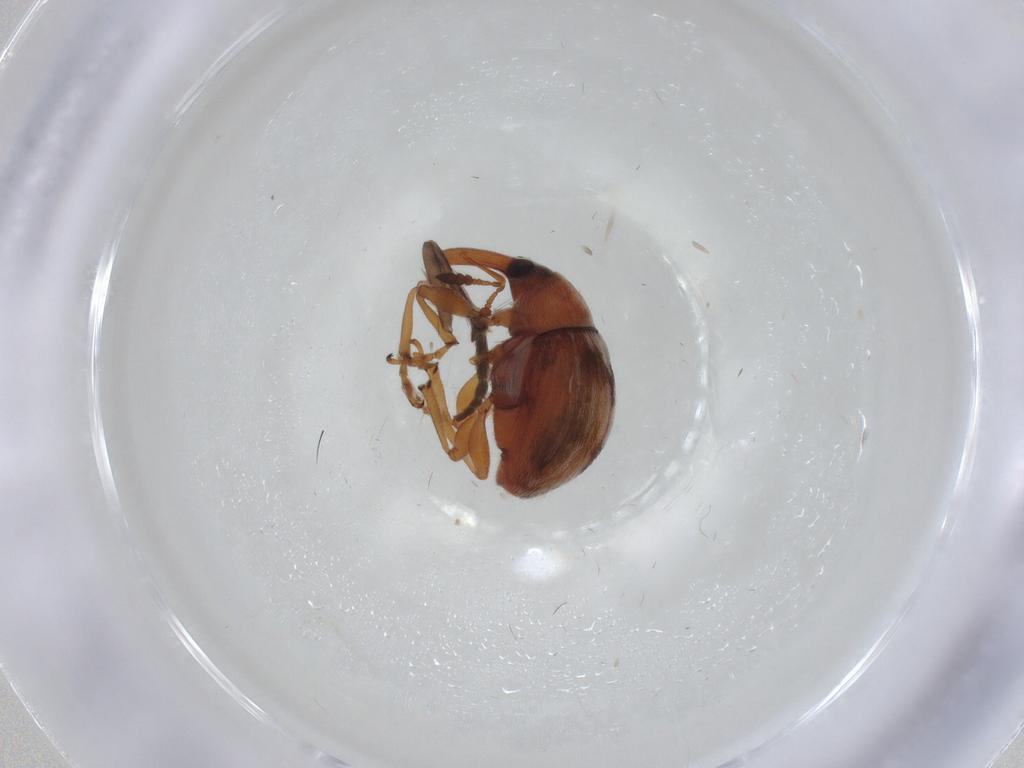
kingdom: Animalia
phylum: Arthropoda
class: Insecta
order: Coleoptera
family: Brentidae
